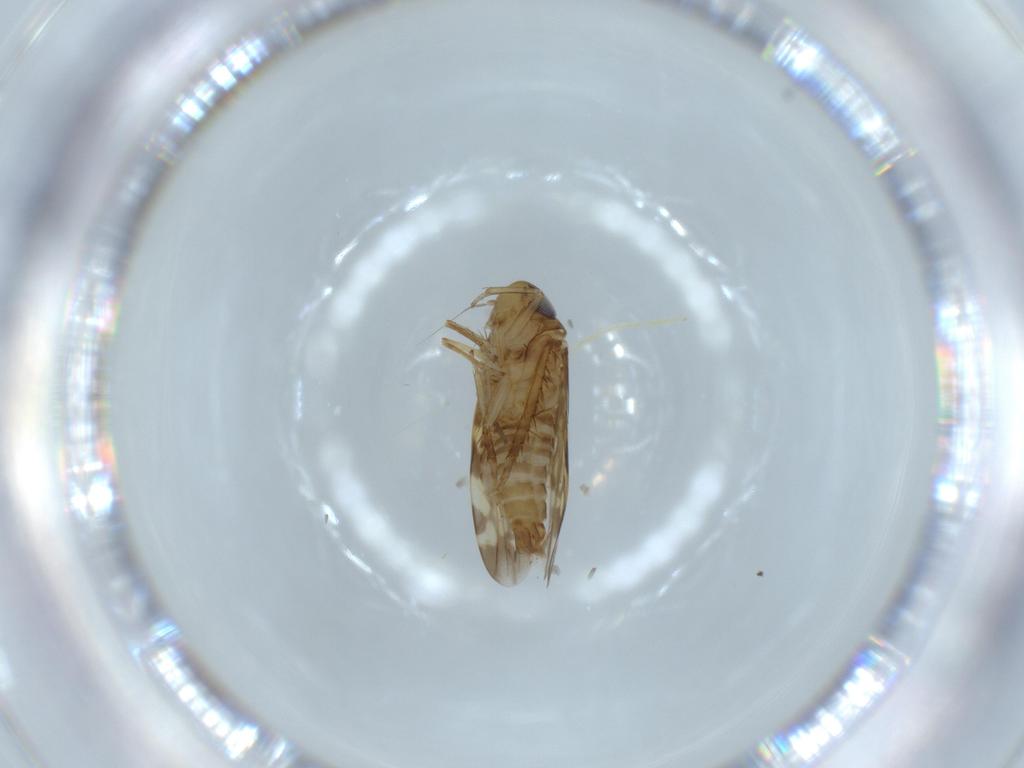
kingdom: Animalia
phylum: Arthropoda
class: Insecta
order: Hemiptera
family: Cicadellidae
